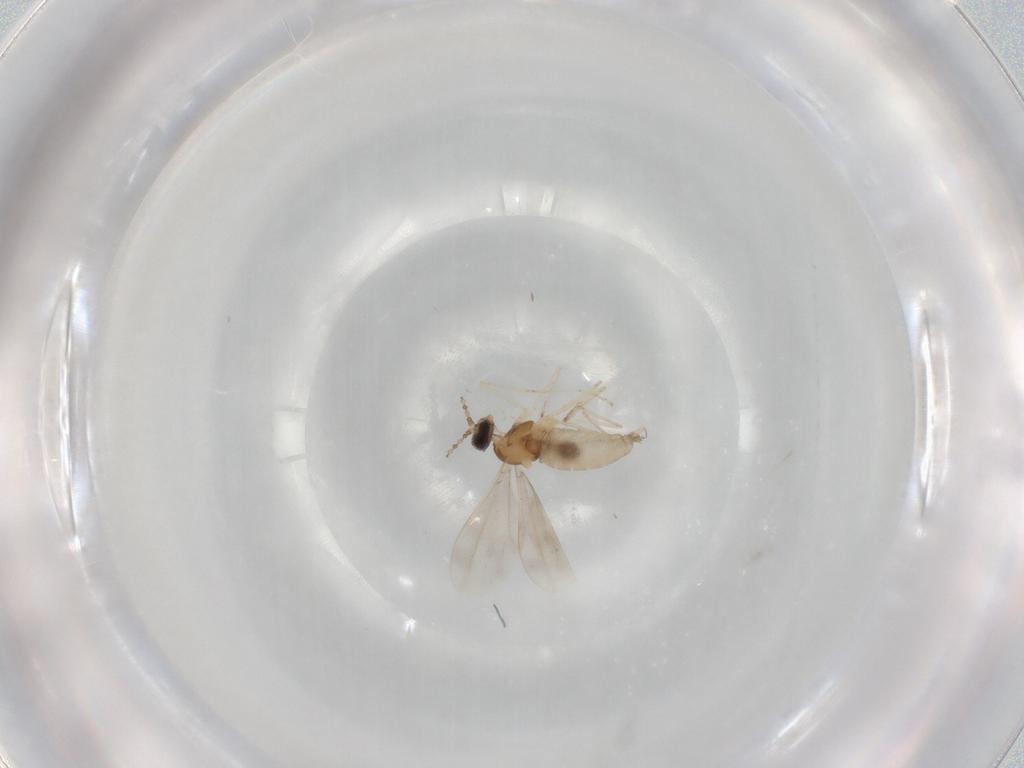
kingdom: Animalia
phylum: Arthropoda
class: Insecta
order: Diptera
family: Cecidomyiidae
